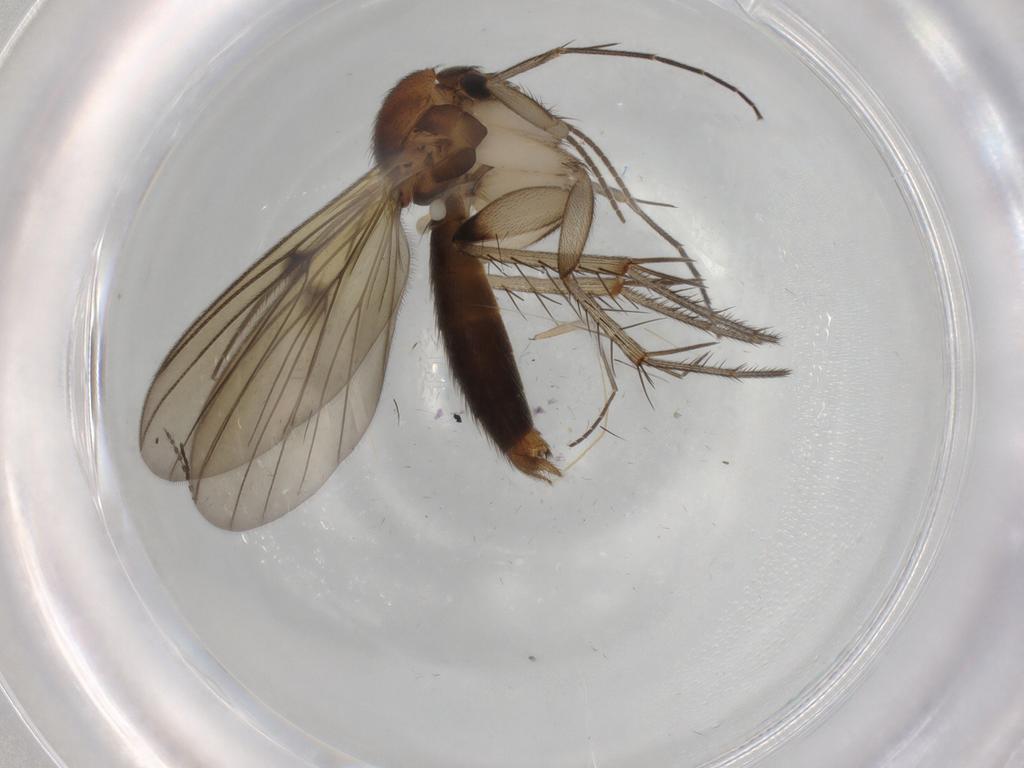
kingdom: Animalia
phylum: Arthropoda
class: Insecta
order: Diptera
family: Mycetophilidae
